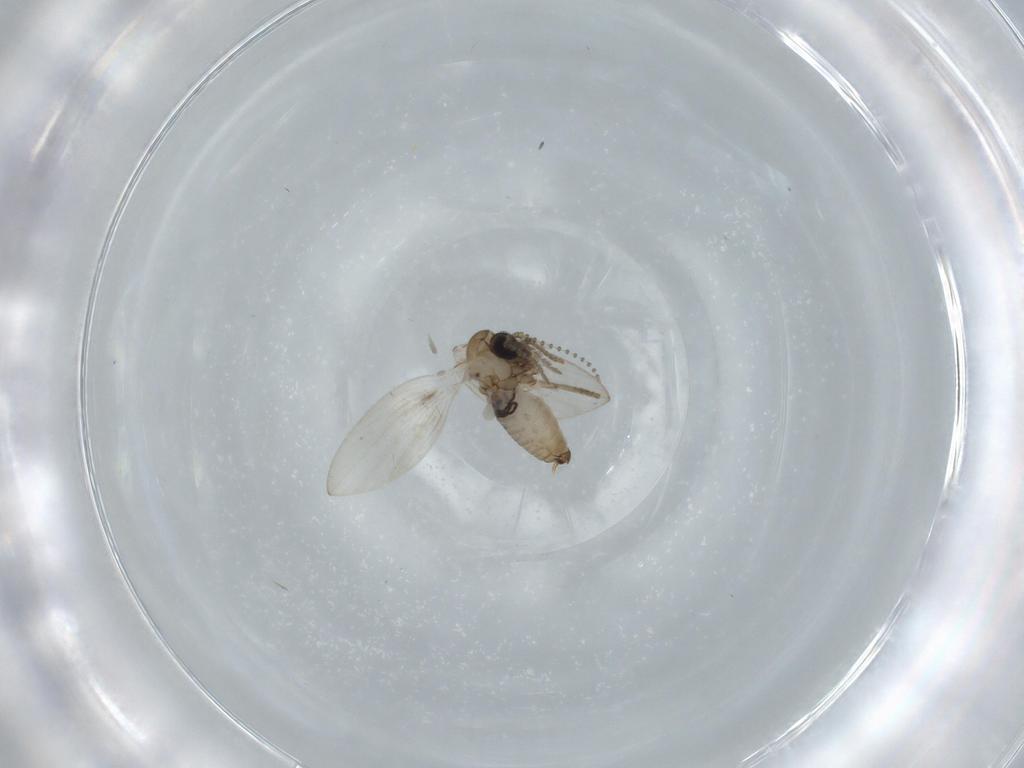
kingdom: Animalia
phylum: Arthropoda
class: Insecta
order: Diptera
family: Psychodidae
